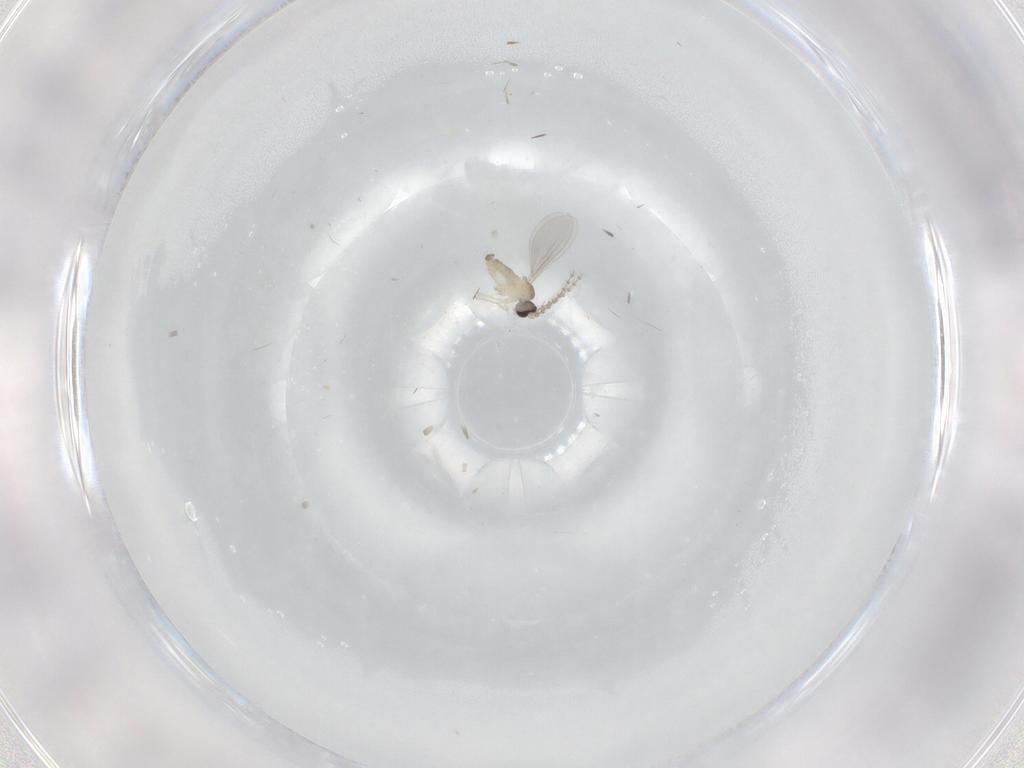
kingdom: Animalia
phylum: Arthropoda
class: Insecta
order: Diptera
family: Cecidomyiidae
